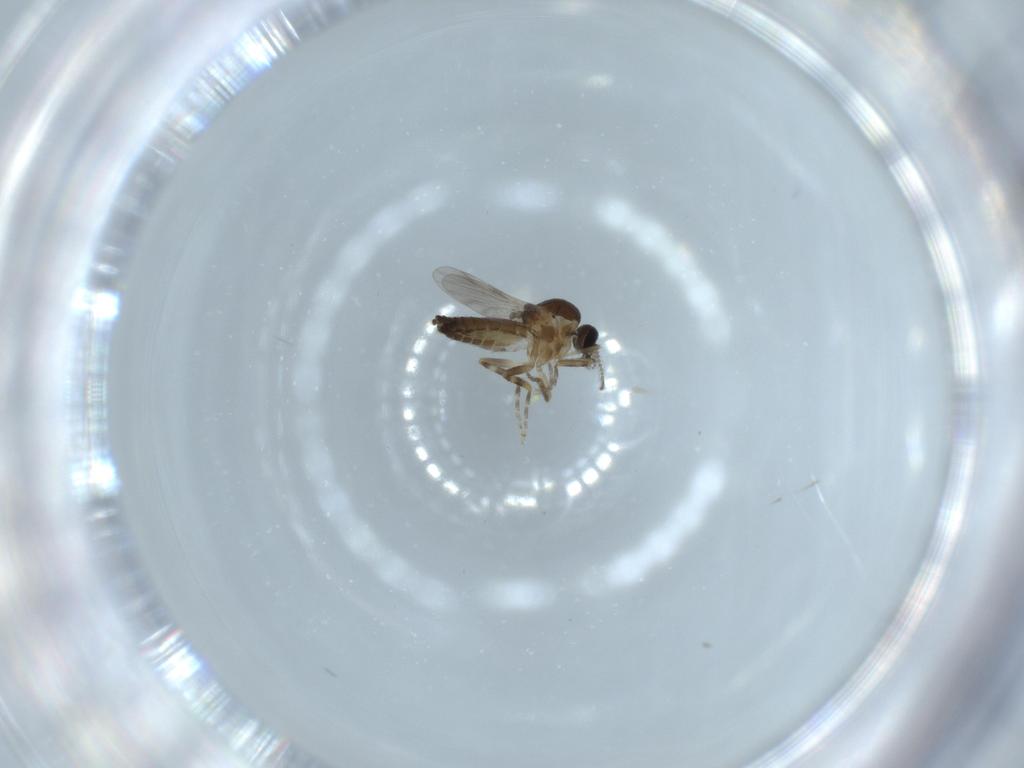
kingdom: Animalia
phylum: Arthropoda
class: Insecta
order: Diptera
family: Ceratopogonidae
